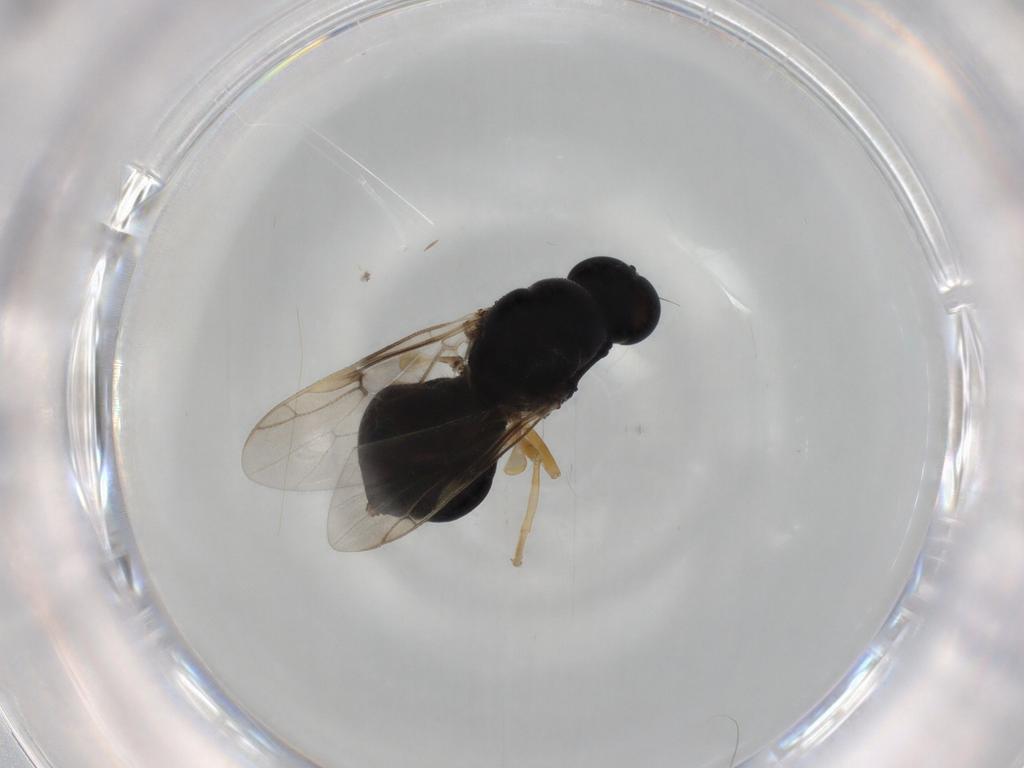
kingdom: Animalia
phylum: Arthropoda
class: Insecta
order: Diptera
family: Stratiomyidae
